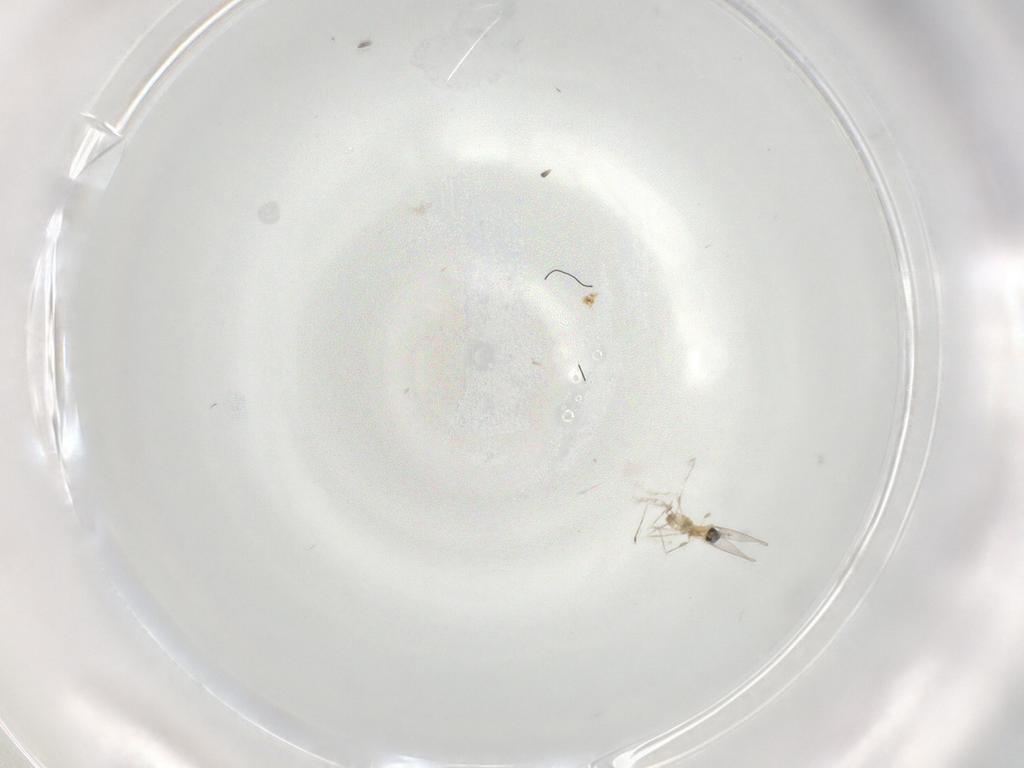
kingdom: Animalia
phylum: Arthropoda
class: Insecta
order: Diptera
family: Cecidomyiidae
